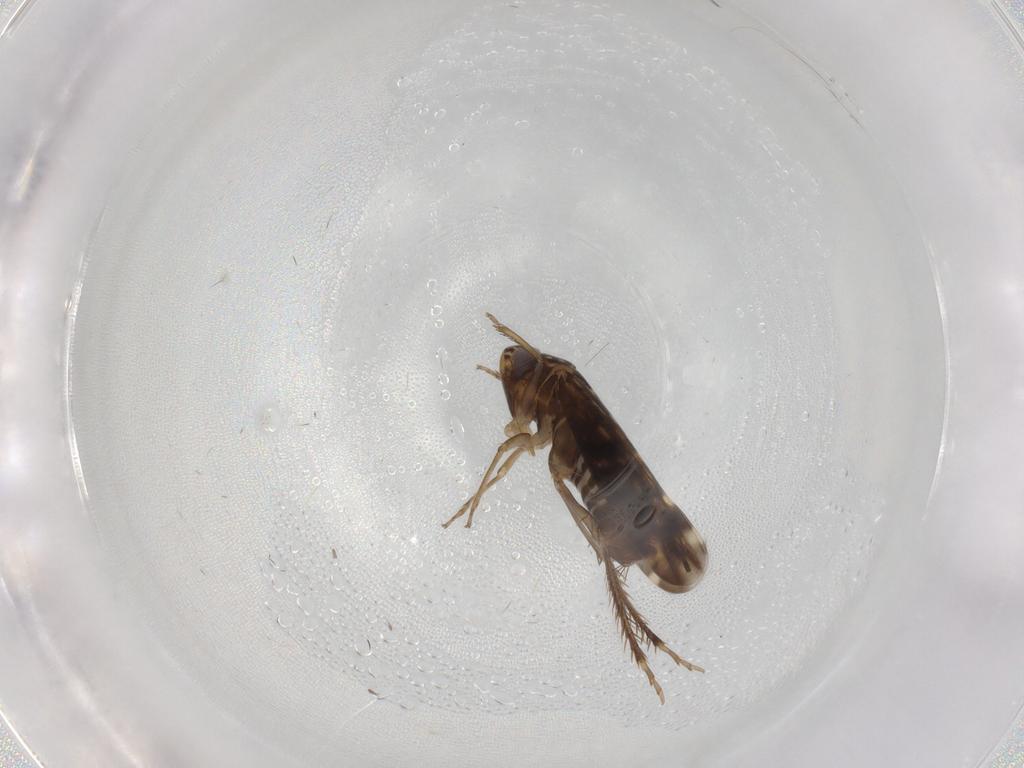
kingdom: Animalia
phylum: Arthropoda
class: Insecta
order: Hemiptera
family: Cicadellidae
